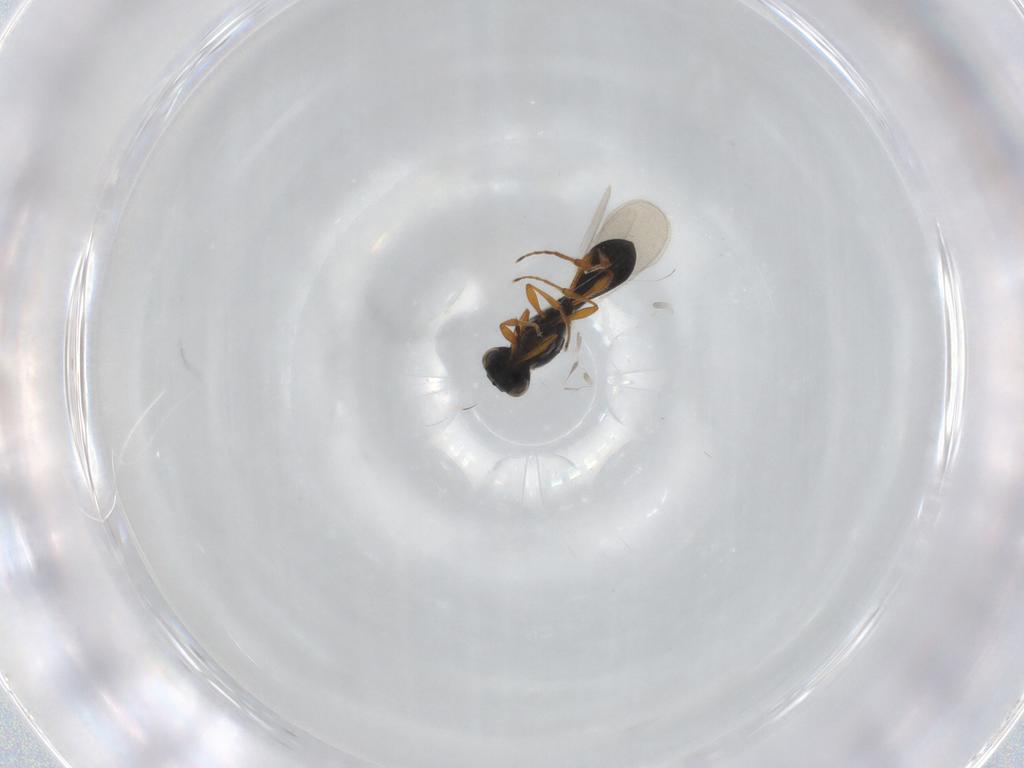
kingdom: Animalia
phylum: Arthropoda
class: Insecta
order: Hymenoptera
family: Platygastridae
